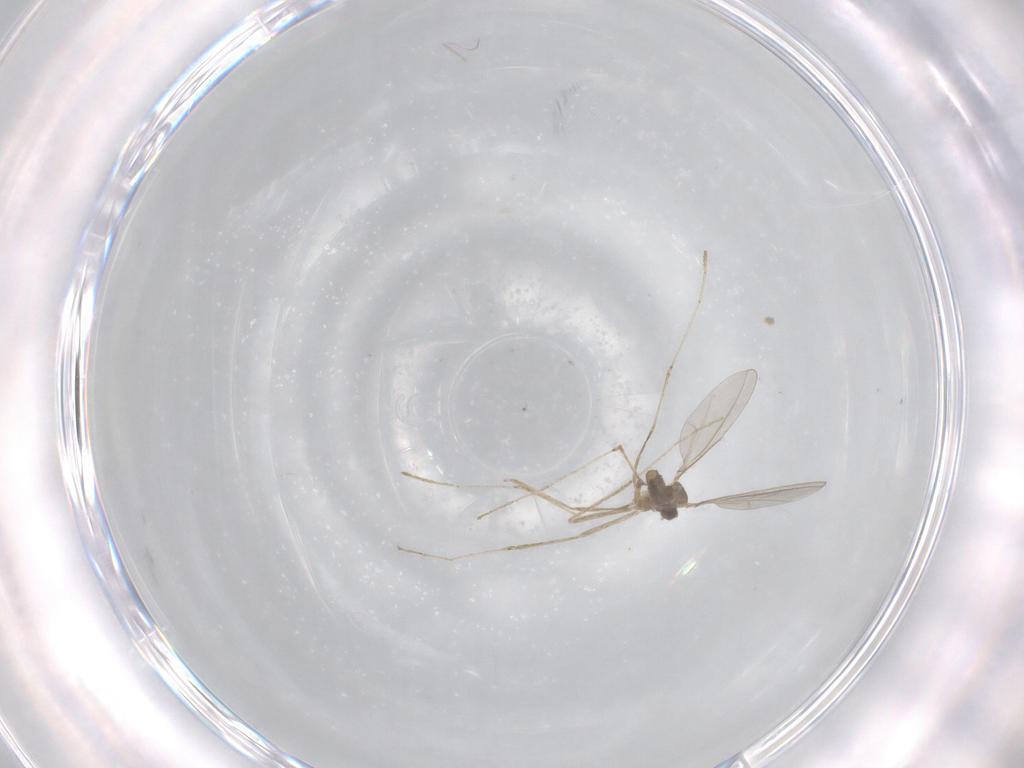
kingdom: Animalia
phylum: Arthropoda
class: Insecta
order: Diptera
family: Cecidomyiidae
